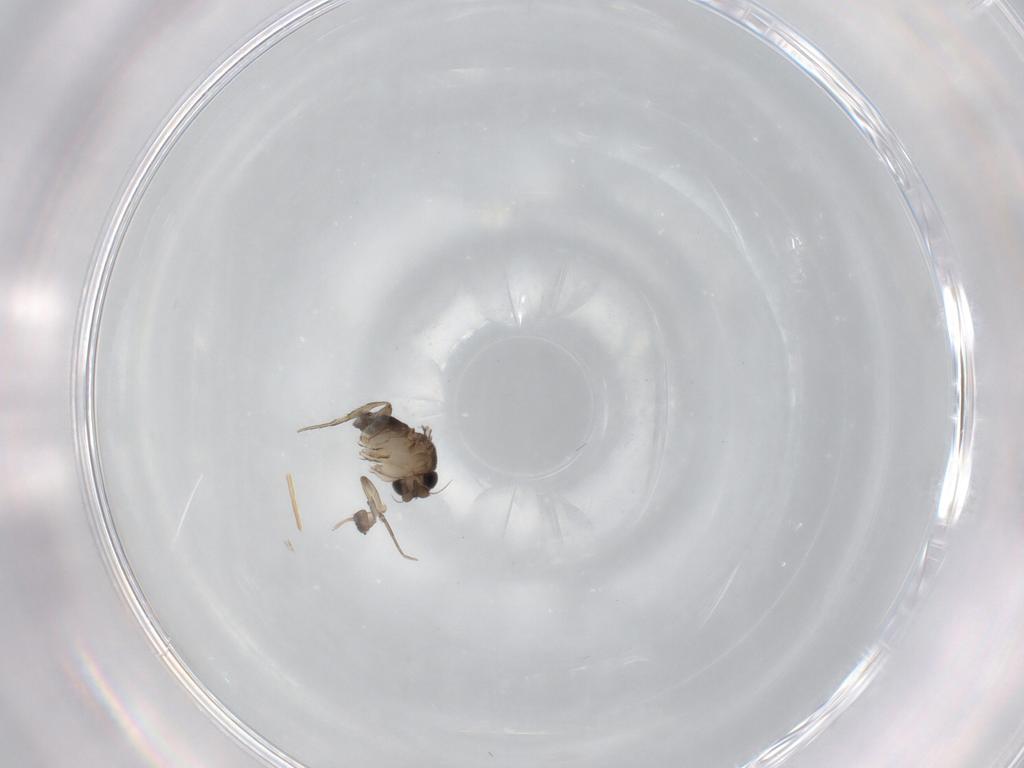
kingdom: Animalia
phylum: Arthropoda
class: Insecta
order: Diptera
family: Phoridae
